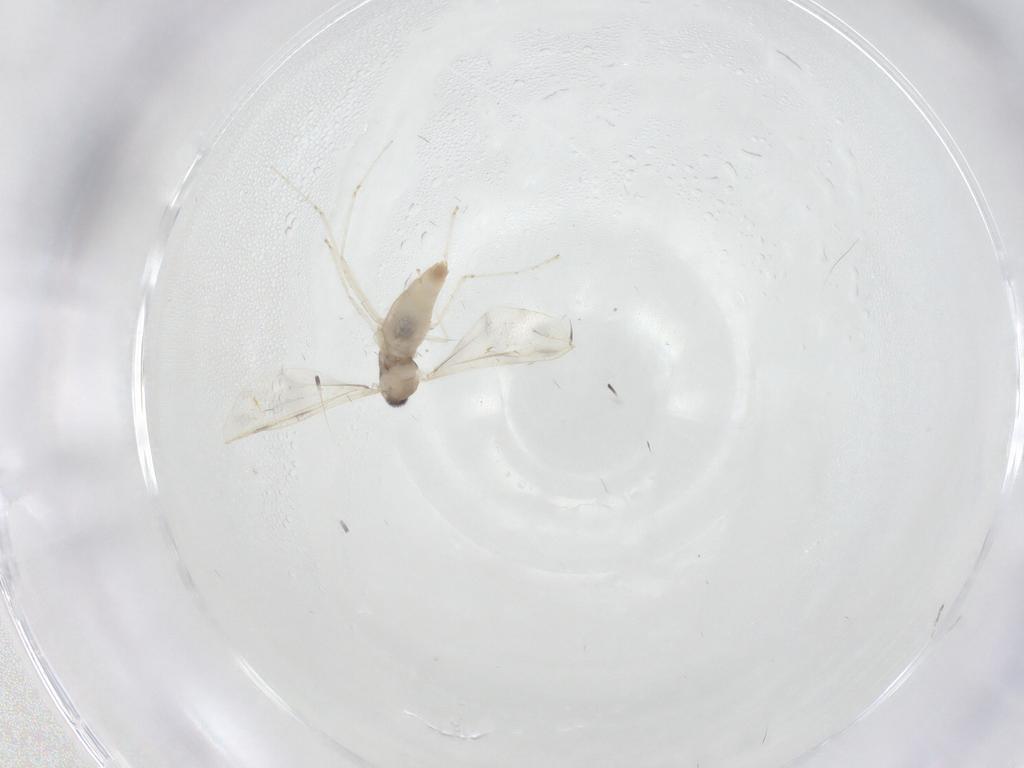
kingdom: Animalia
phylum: Arthropoda
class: Insecta
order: Diptera
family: Cecidomyiidae
